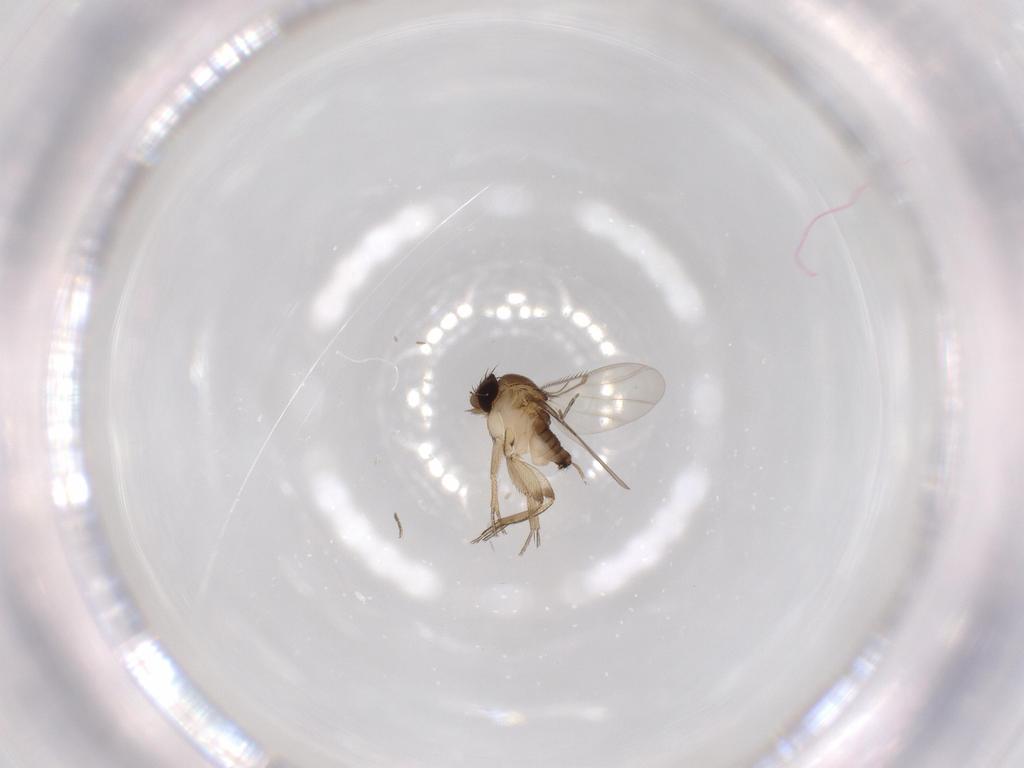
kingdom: Animalia
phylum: Arthropoda
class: Insecta
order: Diptera
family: Phoridae
